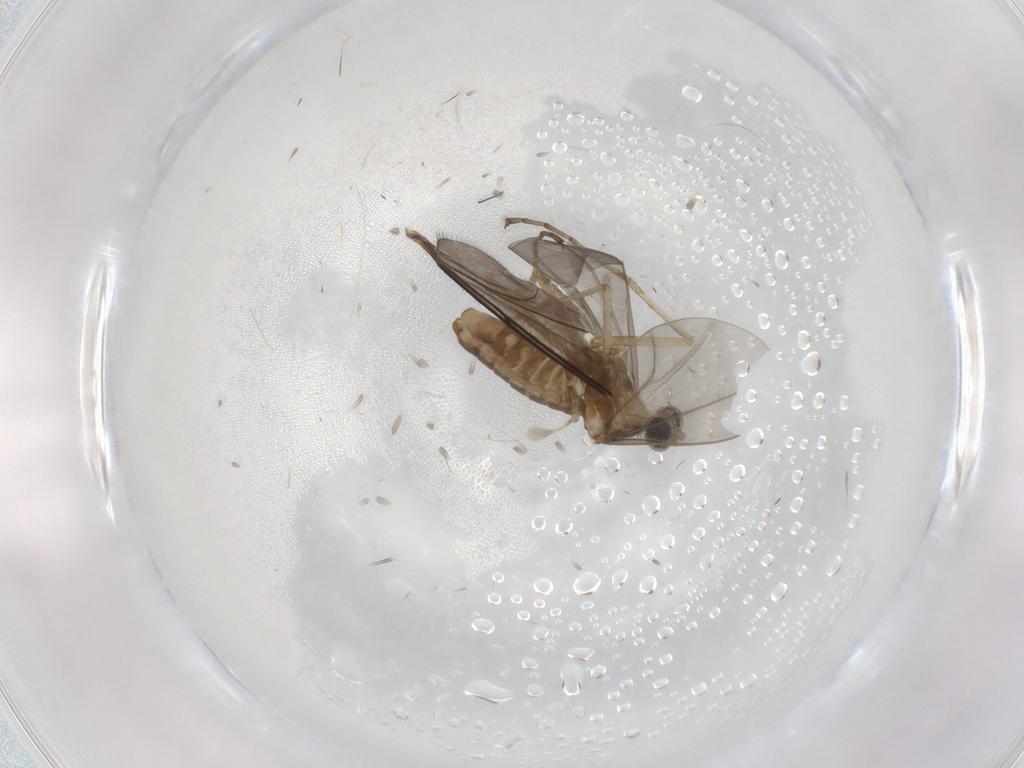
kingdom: Animalia
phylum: Arthropoda
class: Insecta
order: Diptera
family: Cecidomyiidae
